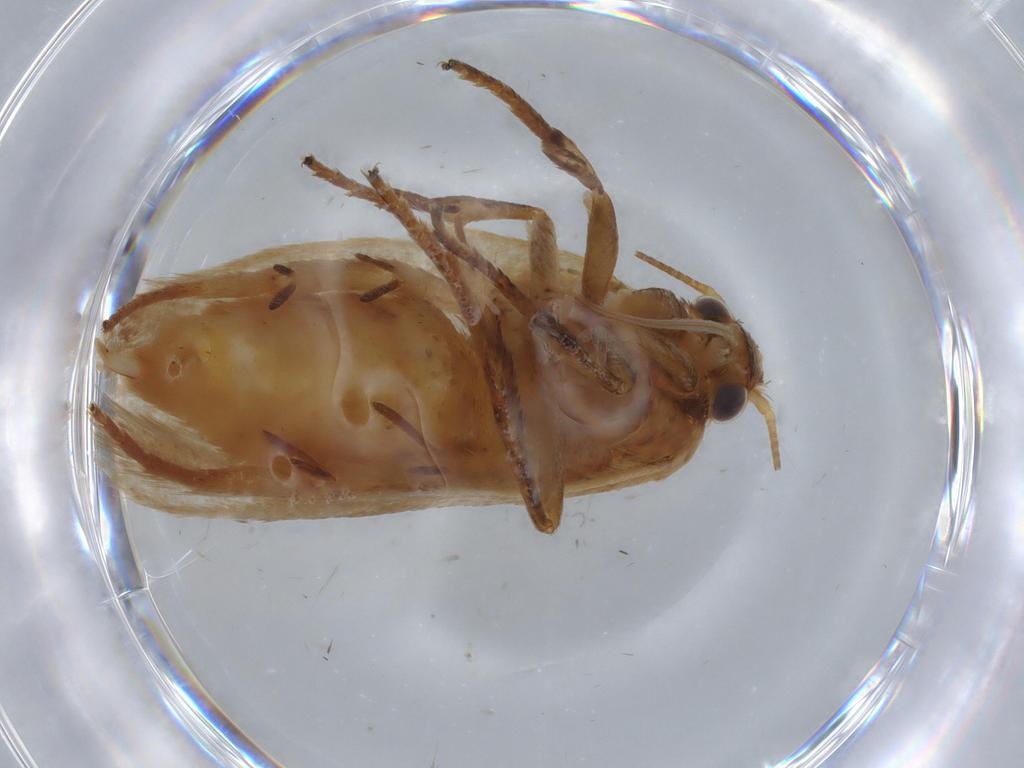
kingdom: Animalia
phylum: Arthropoda
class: Insecta
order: Lepidoptera
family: Oecophoridae
